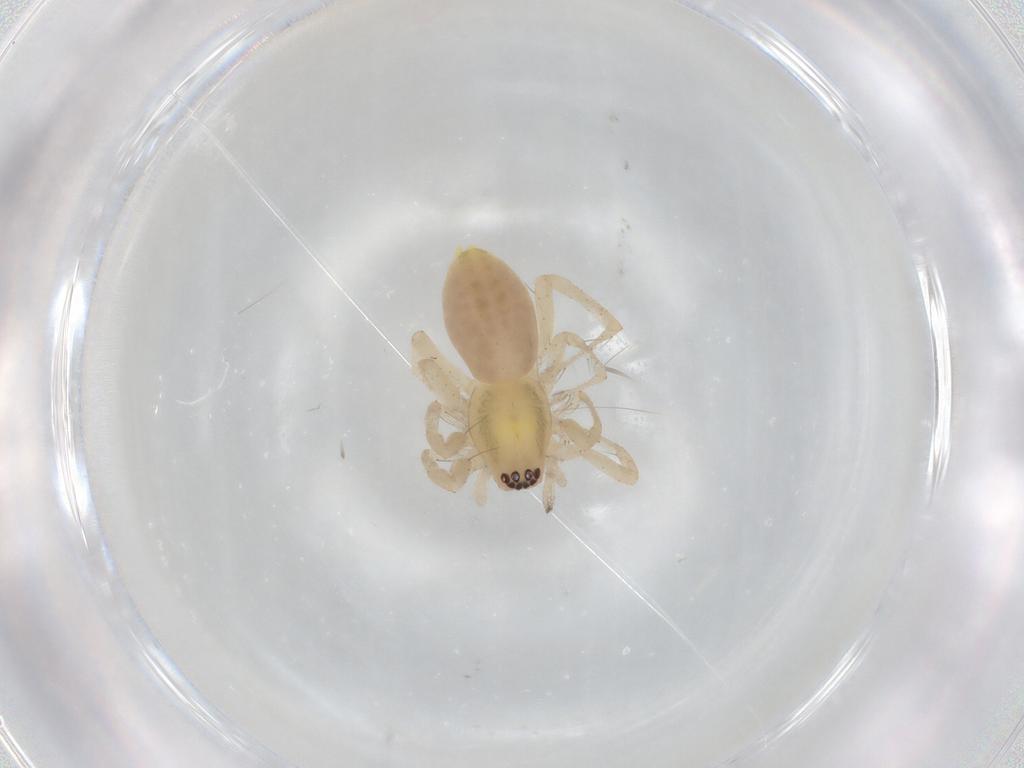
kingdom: Animalia
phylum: Arthropoda
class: Arachnida
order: Araneae
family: Anyphaenidae
